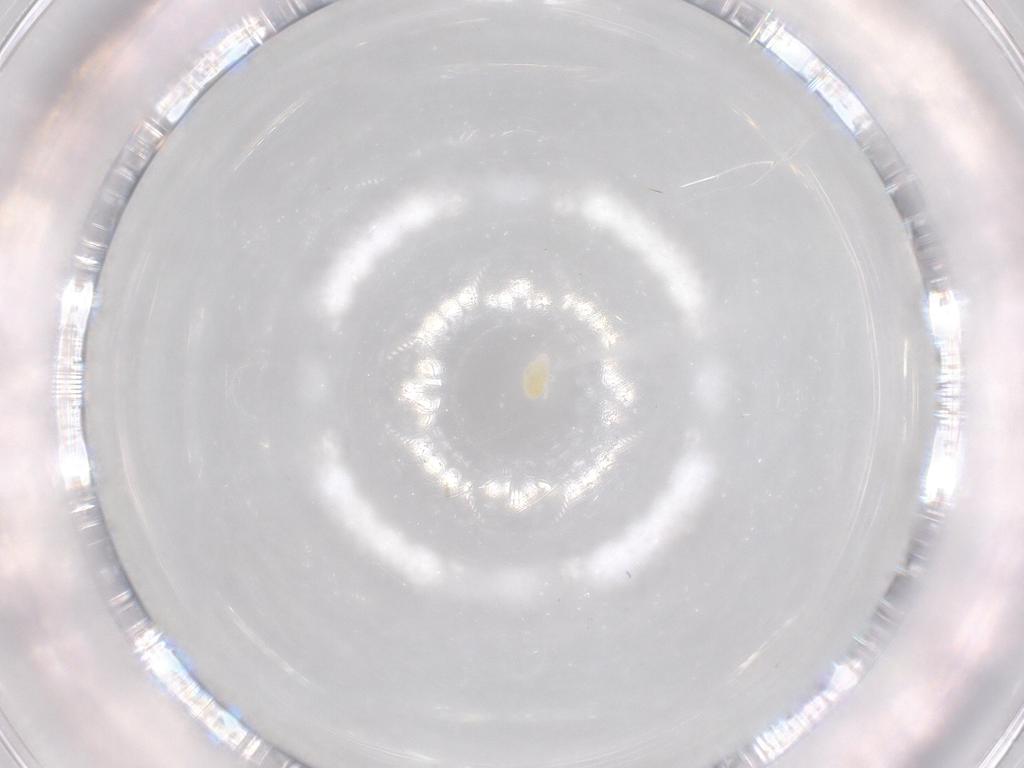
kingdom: Animalia
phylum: Arthropoda
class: Arachnida
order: Trombidiformes
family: Eupodidae
